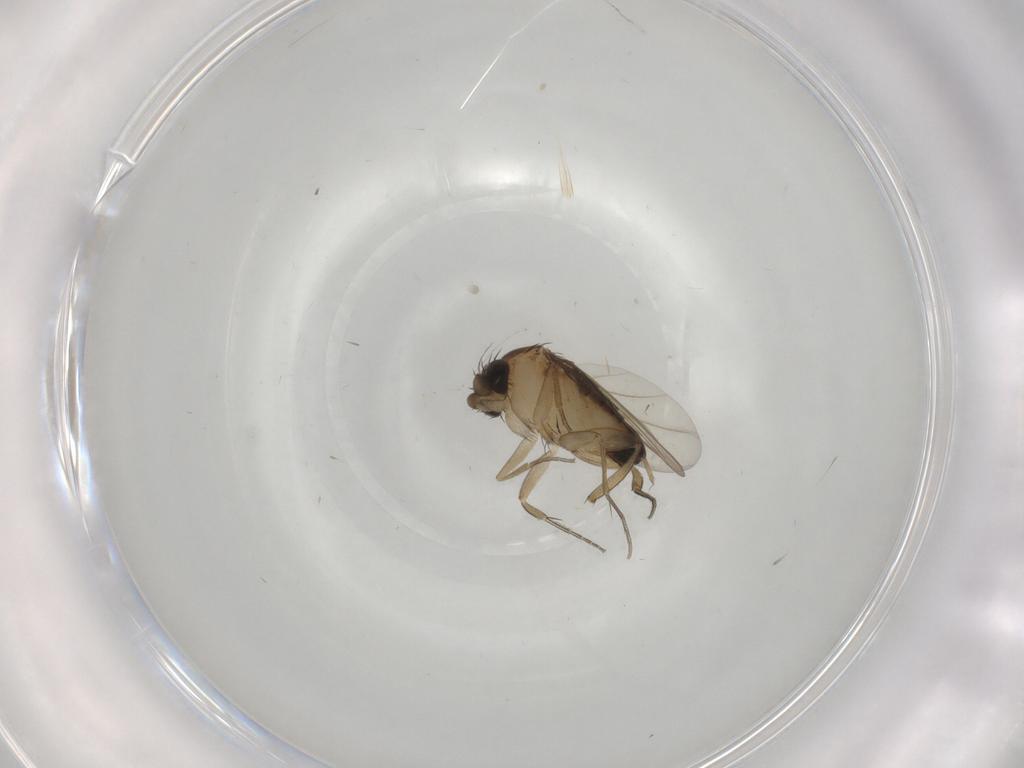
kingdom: Animalia
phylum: Arthropoda
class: Insecta
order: Diptera
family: Phoridae
